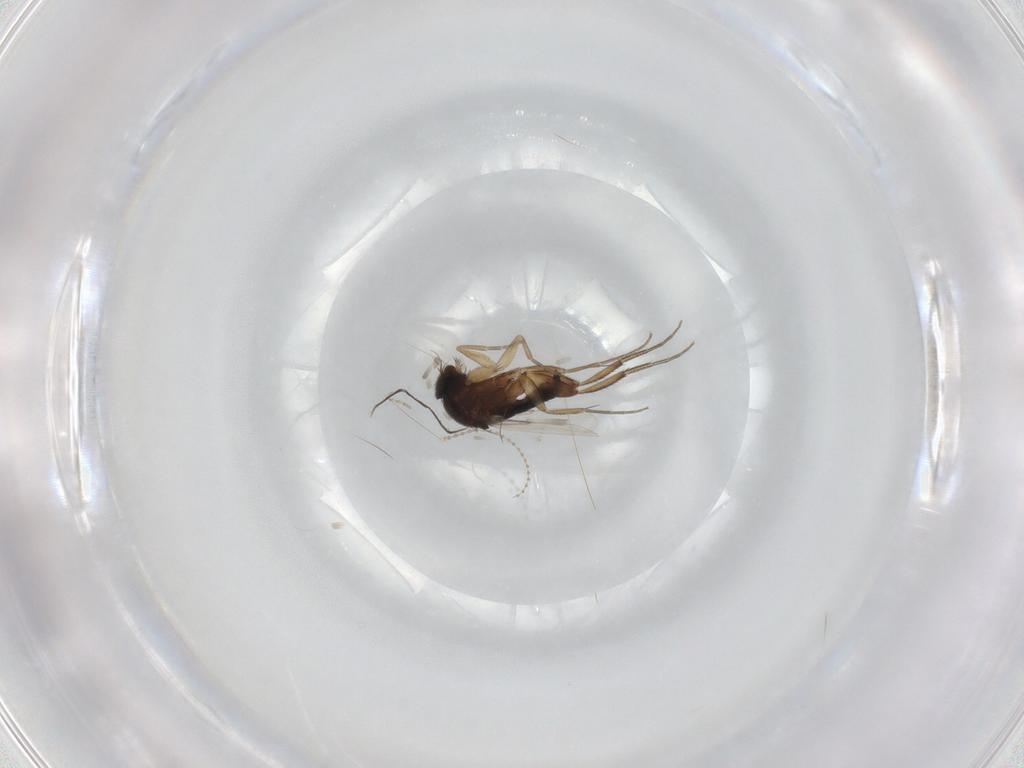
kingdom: Animalia
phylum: Arthropoda
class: Insecta
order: Diptera
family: Phoridae
